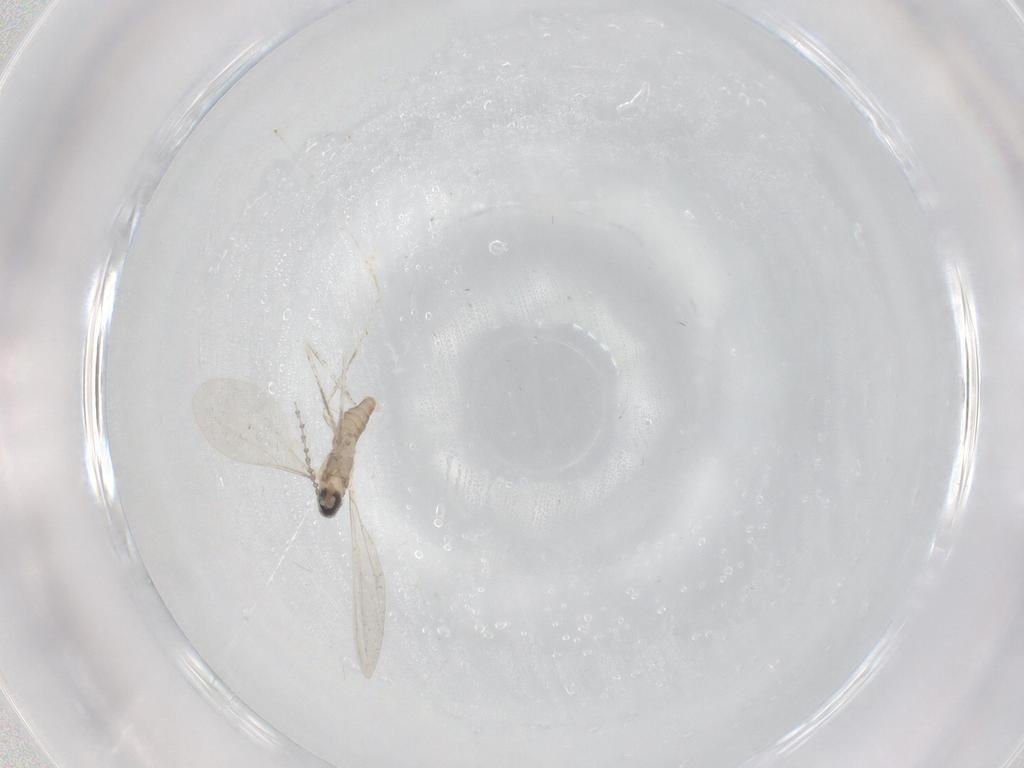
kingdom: Animalia
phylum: Arthropoda
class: Insecta
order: Diptera
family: Cecidomyiidae
